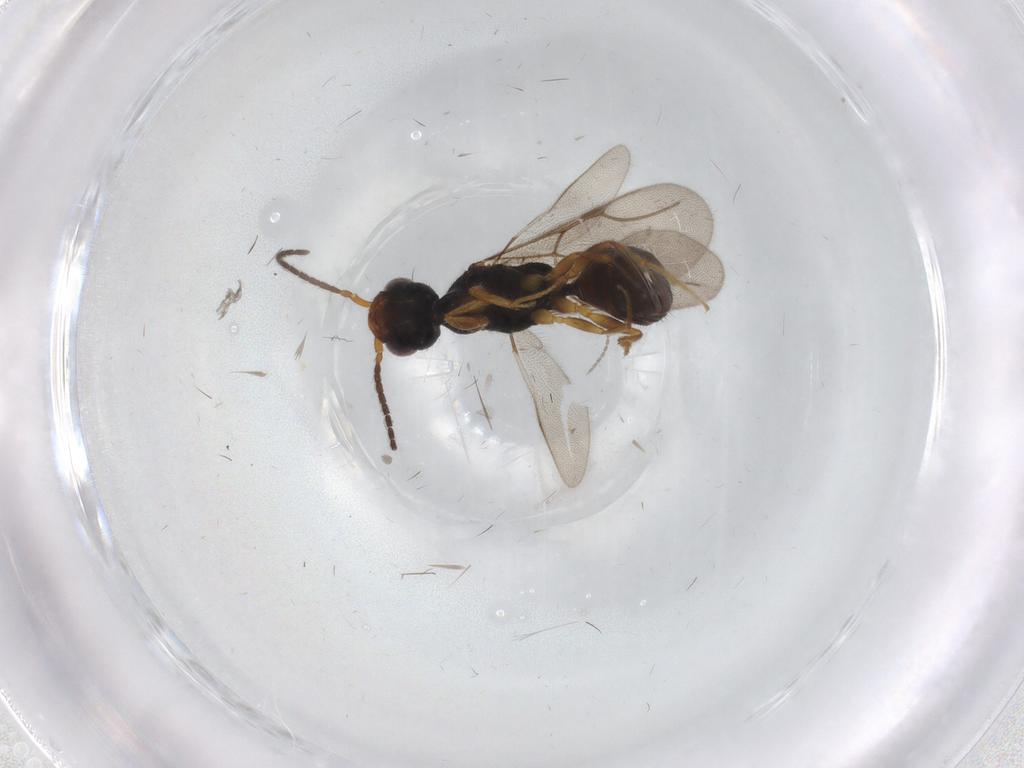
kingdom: Animalia
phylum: Arthropoda
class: Insecta
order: Hymenoptera
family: Bethylidae
